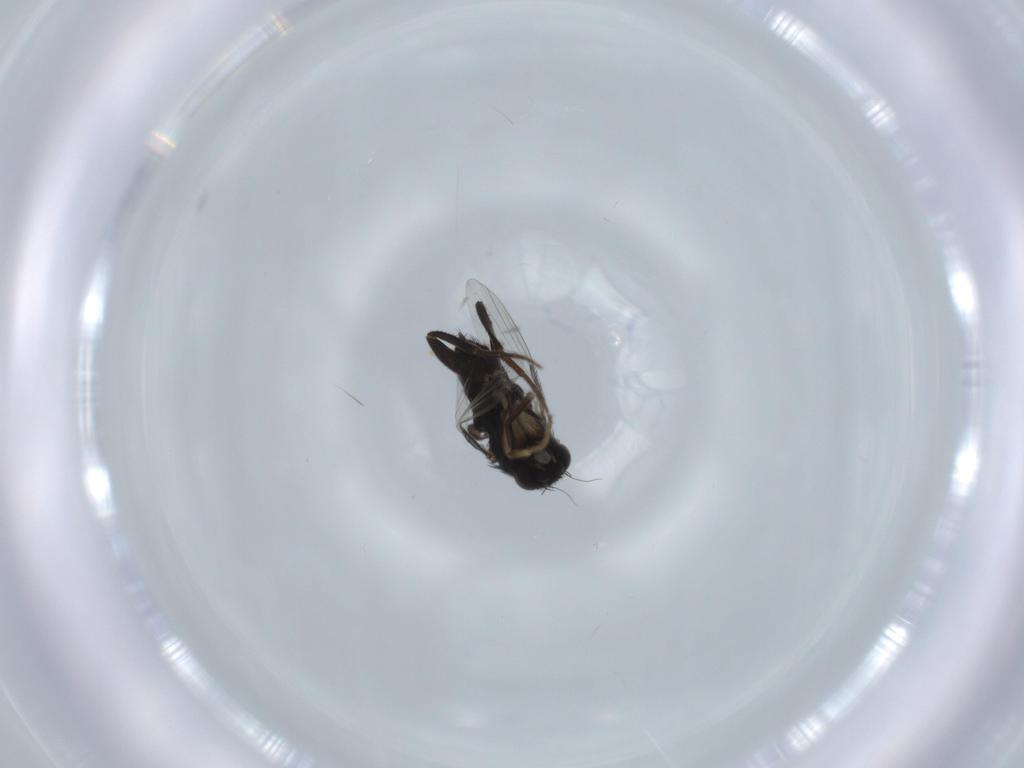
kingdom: Animalia
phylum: Arthropoda
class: Insecta
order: Diptera
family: Phoridae
